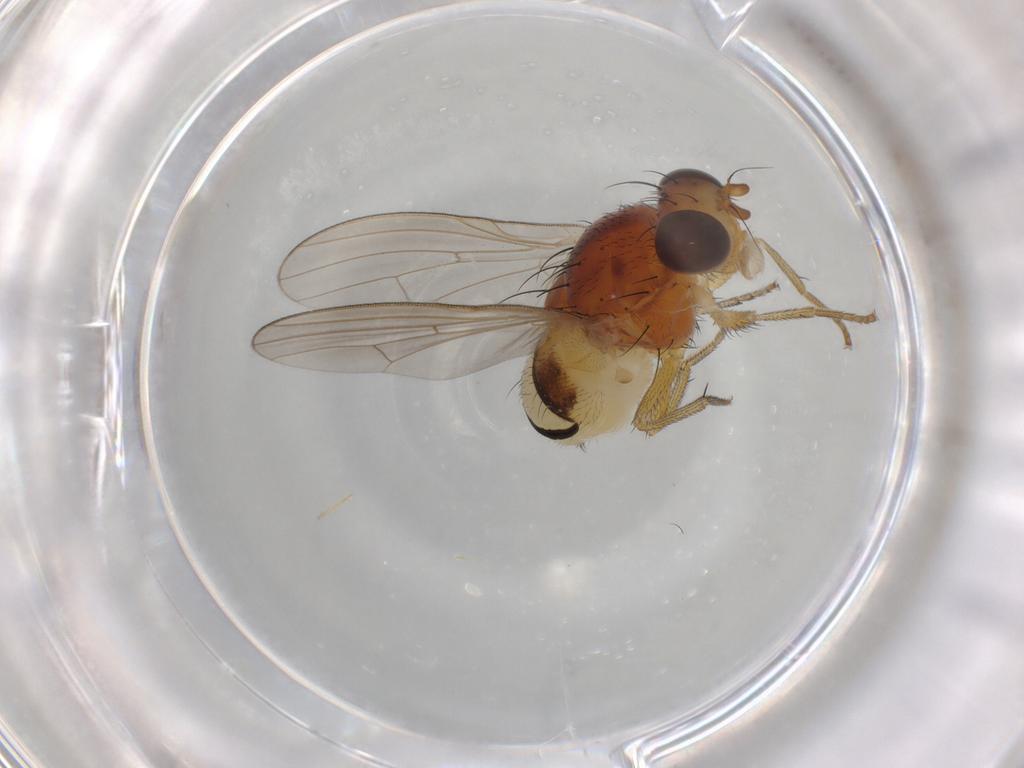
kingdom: Animalia
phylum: Arthropoda
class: Insecta
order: Diptera
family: Lauxaniidae
